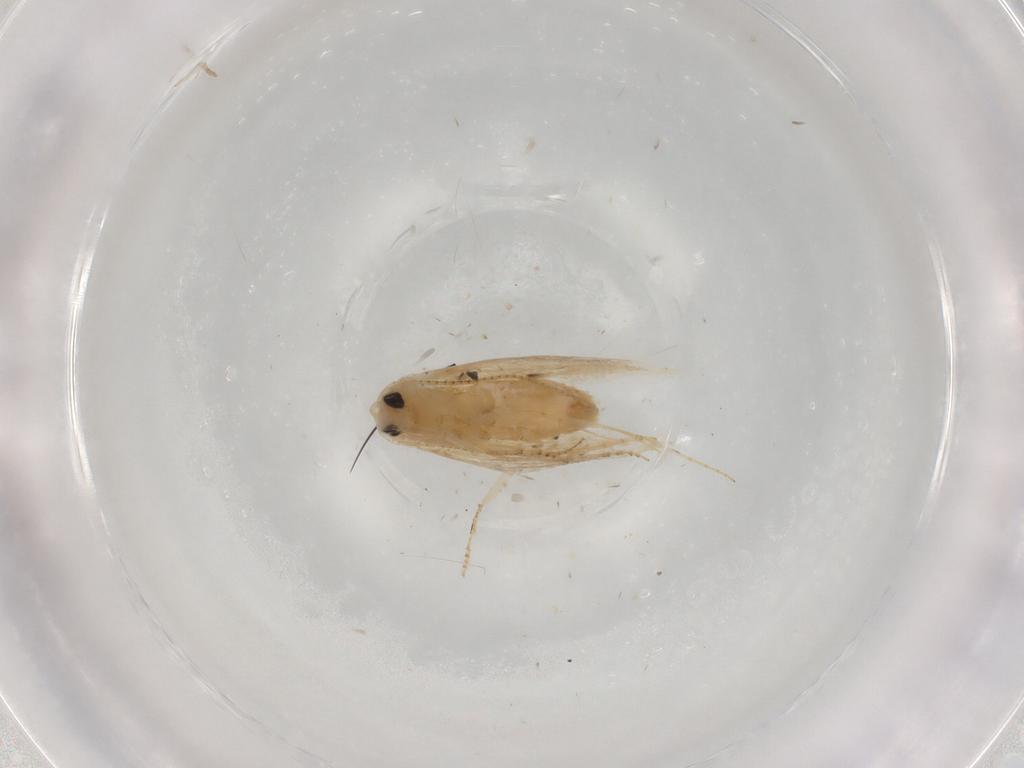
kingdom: Animalia
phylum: Arthropoda
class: Insecta
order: Lepidoptera
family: Bucculatricidae
